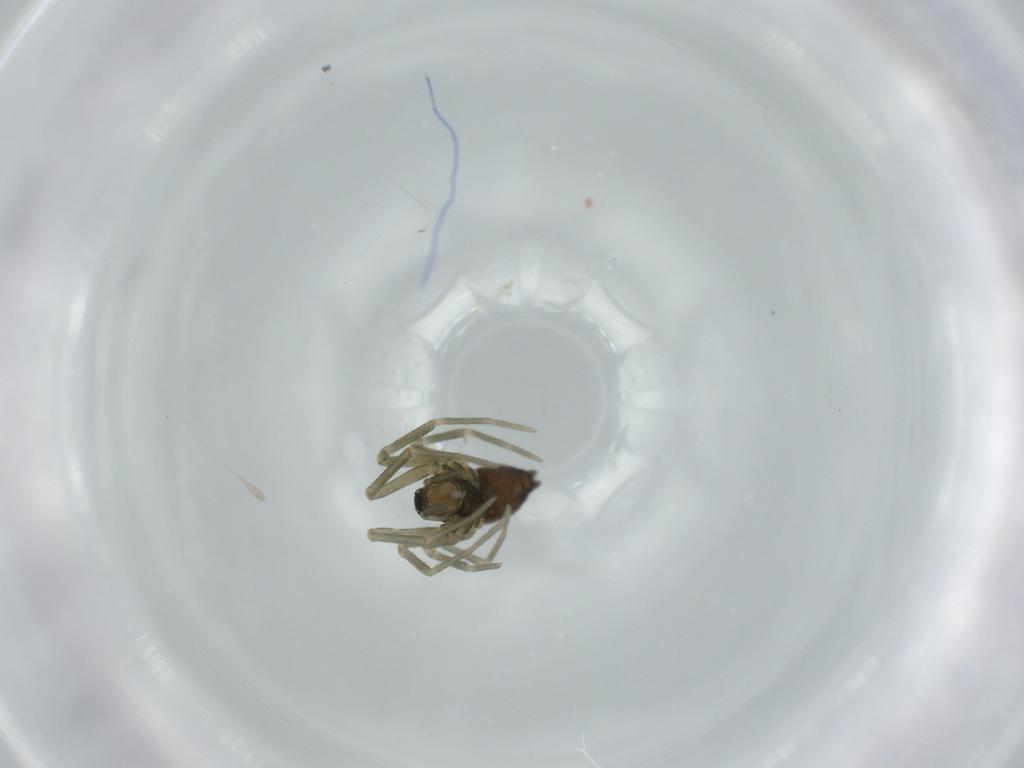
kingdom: Animalia
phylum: Arthropoda
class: Arachnida
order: Araneae
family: Linyphiidae
